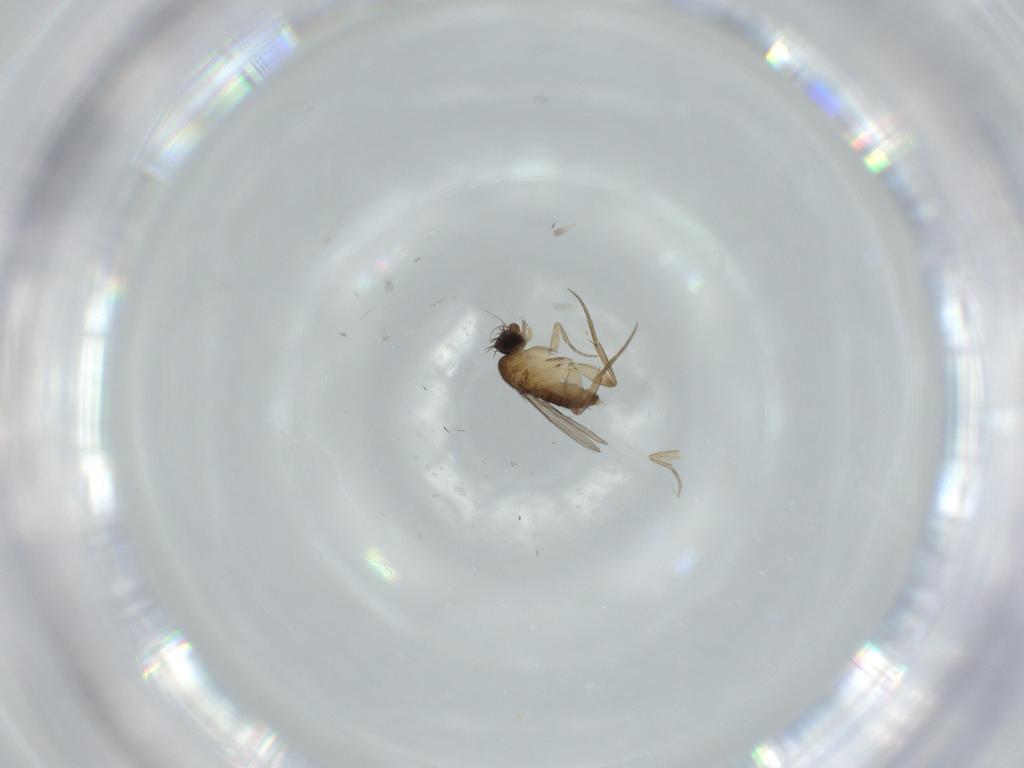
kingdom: Animalia
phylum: Arthropoda
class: Insecta
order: Diptera
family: Phoridae
